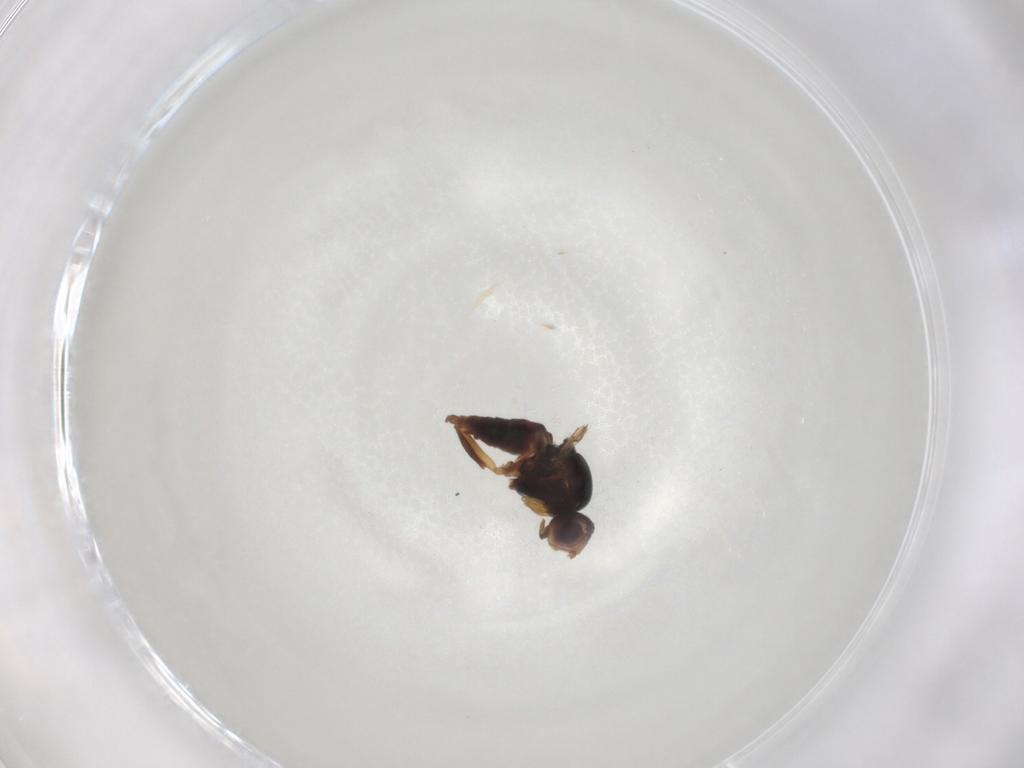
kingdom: Animalia
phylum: Arthropoda
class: Insecta
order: Diptera
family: Chloropidae
